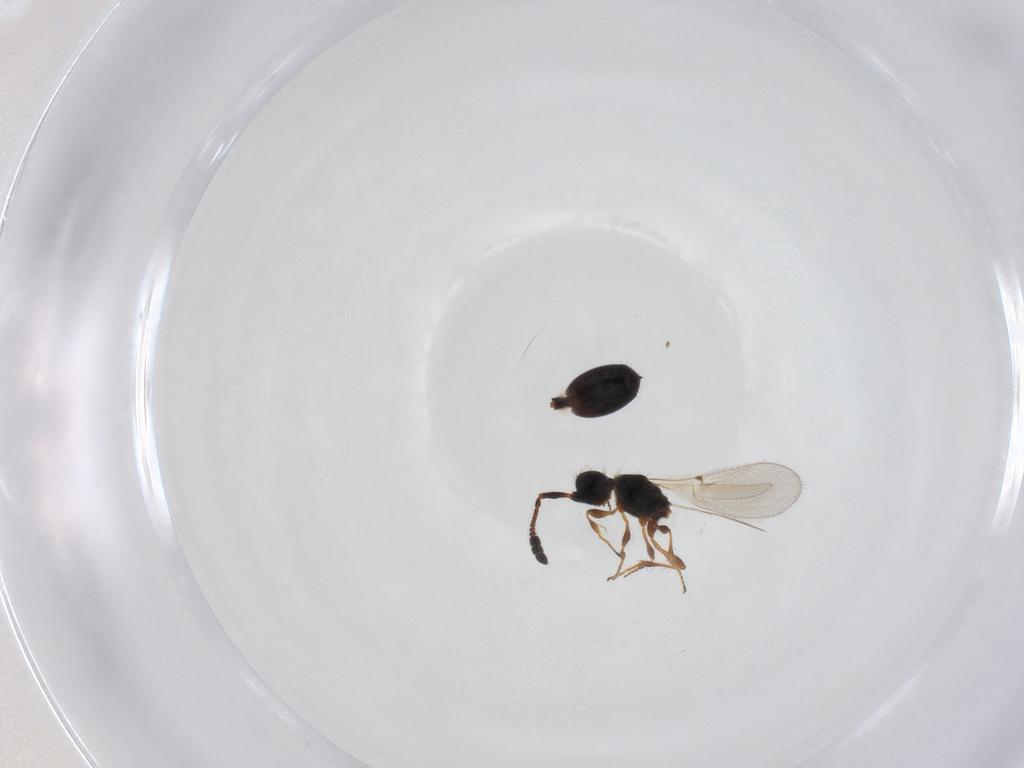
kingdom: Animalia
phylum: Arthropoda
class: Insecta
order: Hymenoptera
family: Diapriidae
